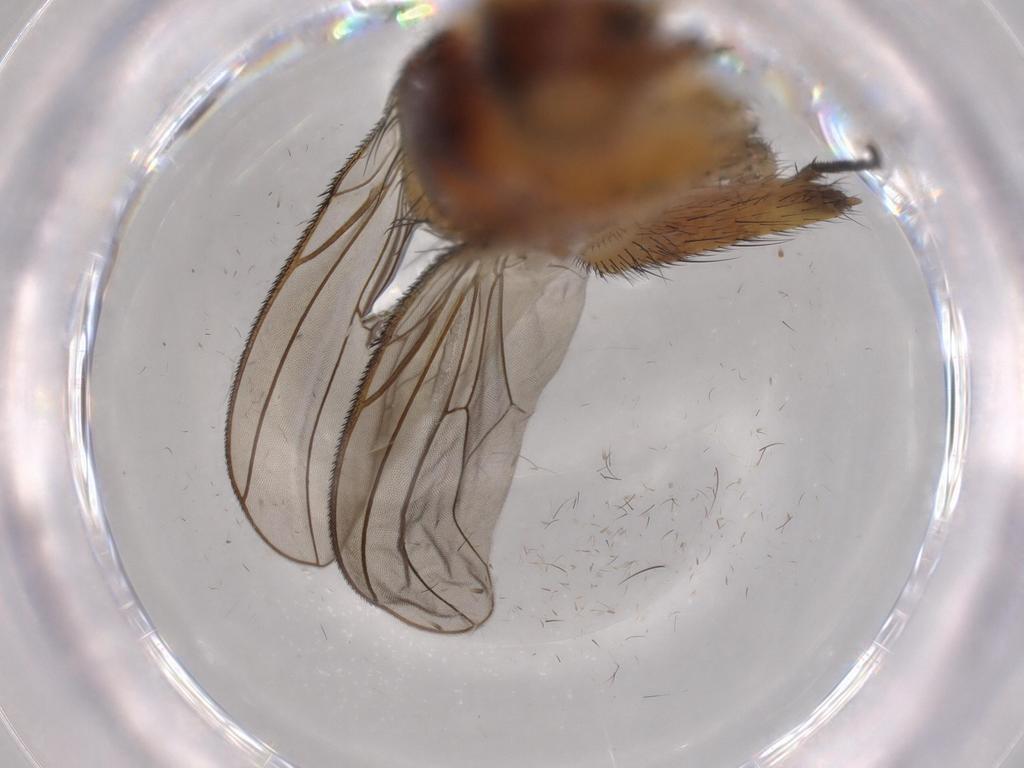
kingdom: Animalia
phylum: Arthropoda
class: Insecta
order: Diptera
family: Anthomyiidae
